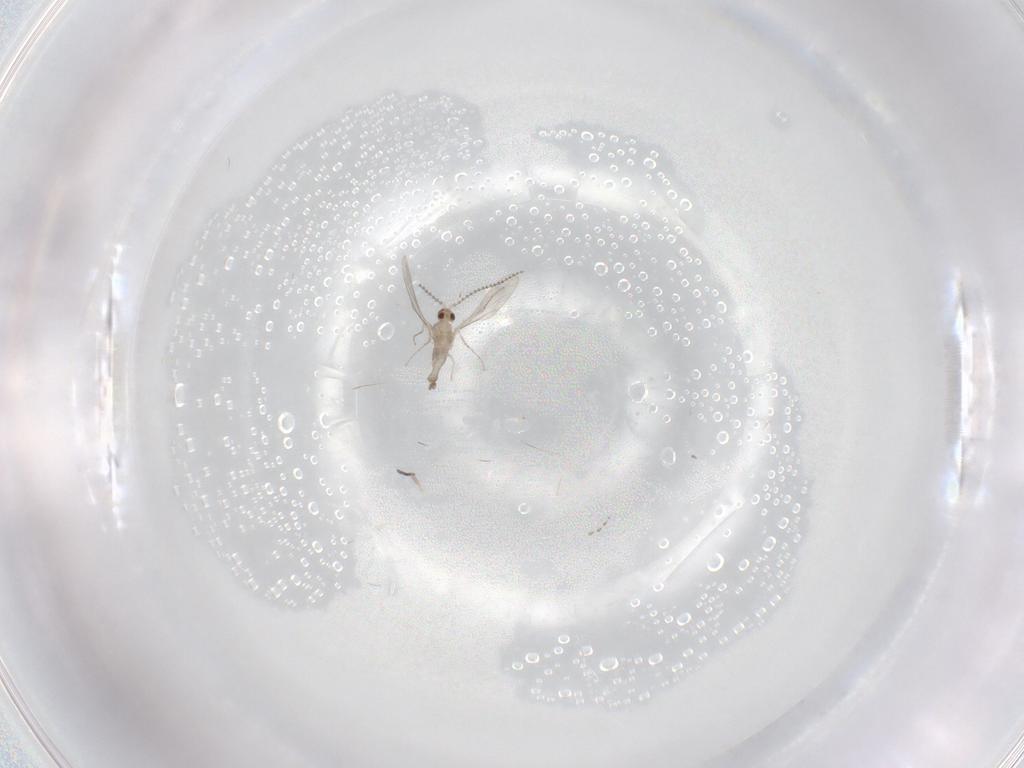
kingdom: Animalia
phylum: Arthropoda
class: Insecta
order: Diptera
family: Cecidomyiidae
